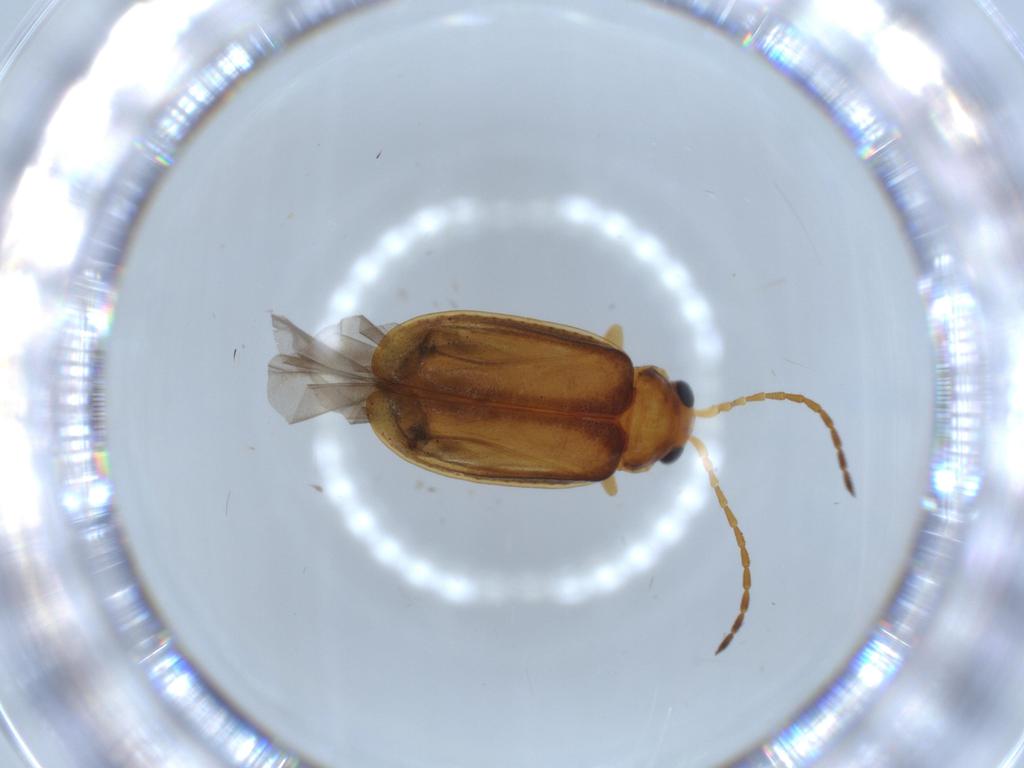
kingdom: Animalia
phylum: Arthropoda
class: Insecta
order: Coleoptera
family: Chrysomelidae
